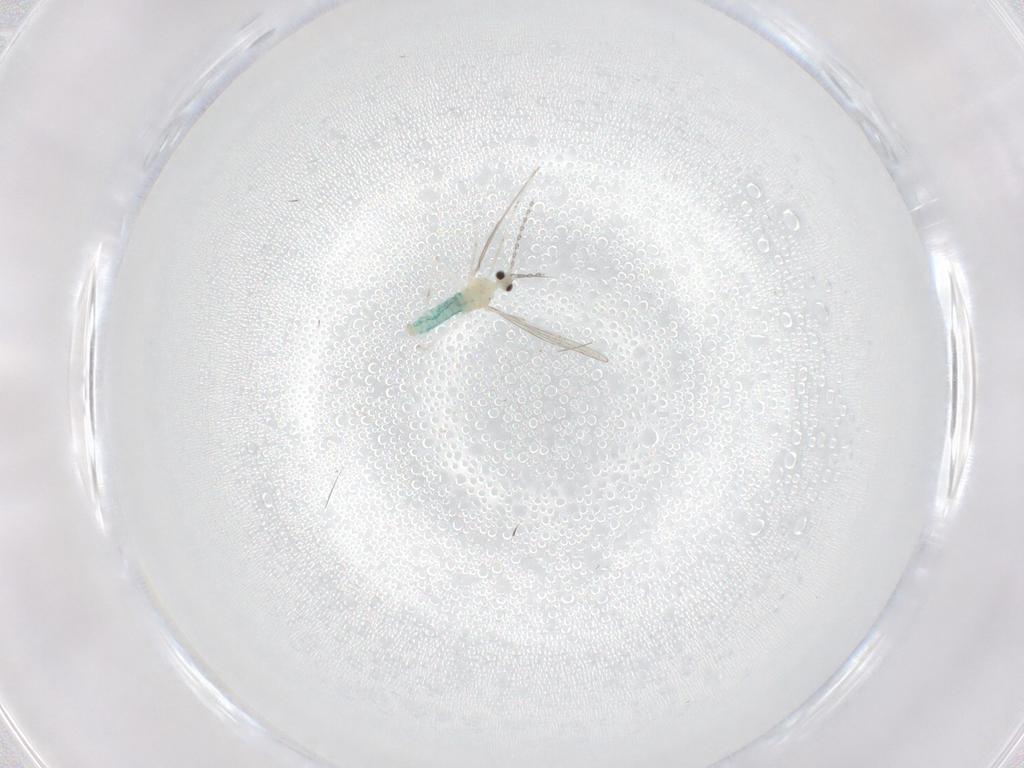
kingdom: Animalia
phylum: Arthropoda
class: Insecta
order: Diptera
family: Cecidomyiidae
